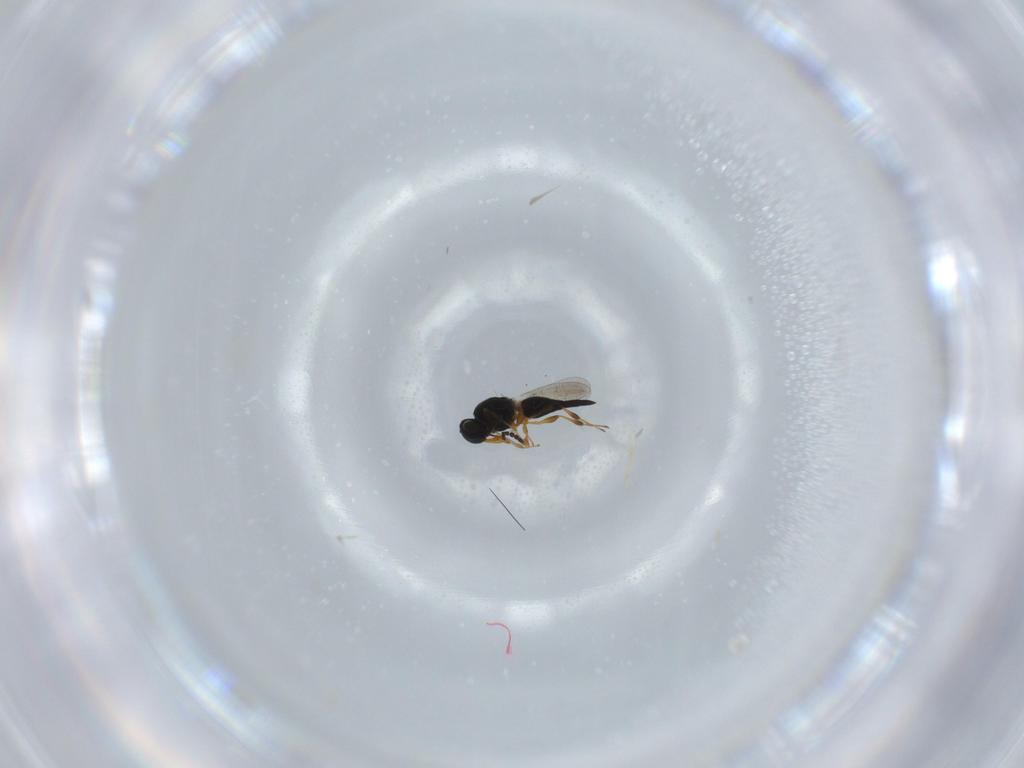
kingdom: Animalia
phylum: Arthropoda
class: Insecta
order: Hymenoptera
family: Platygastridae
